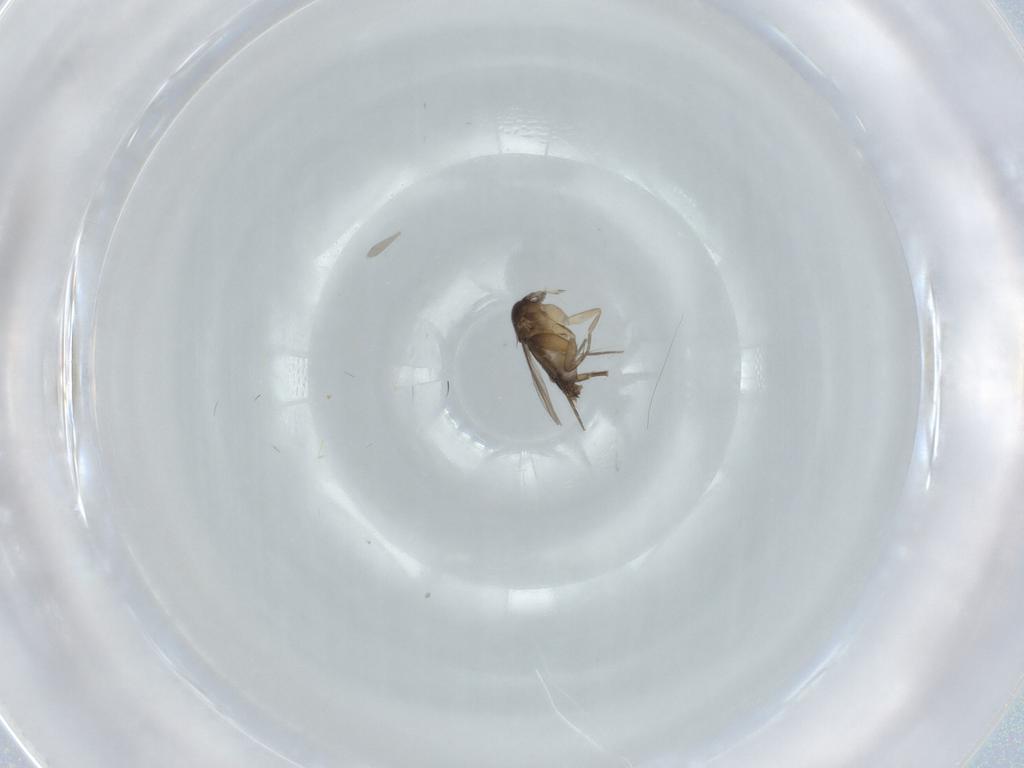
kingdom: Animalia
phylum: Arthropoda
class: Insecta
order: Diptera
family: Phoridae
